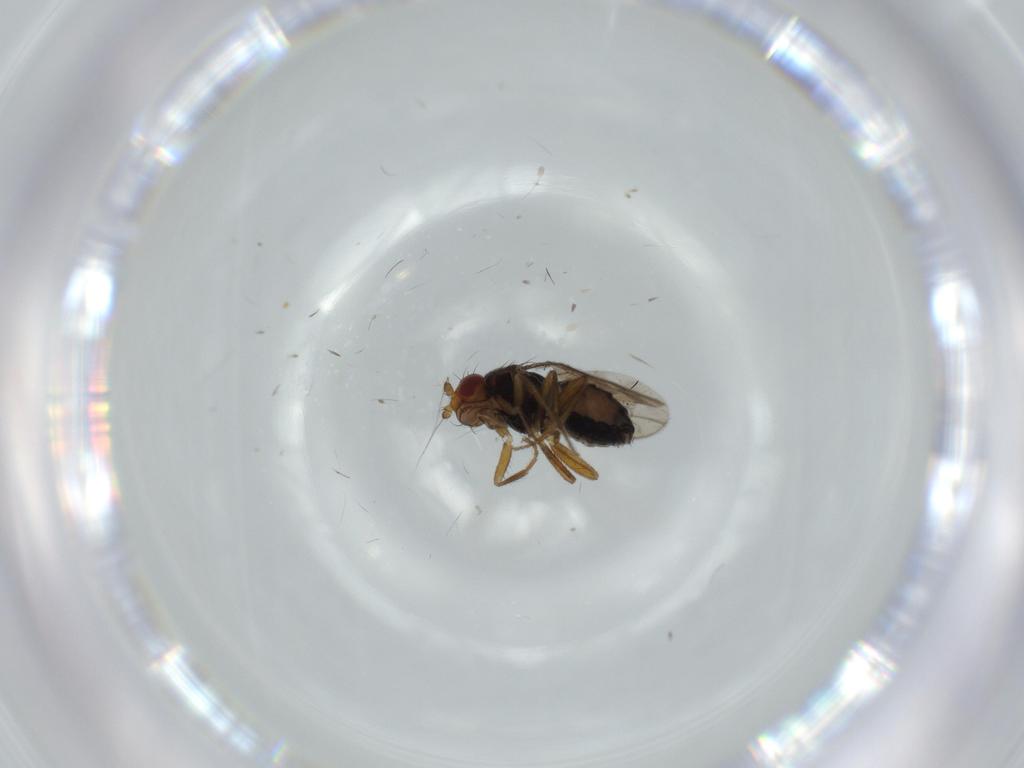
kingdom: Animalia
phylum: Arthropoda
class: Insecta
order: Diptera
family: Sphaeroceridae
